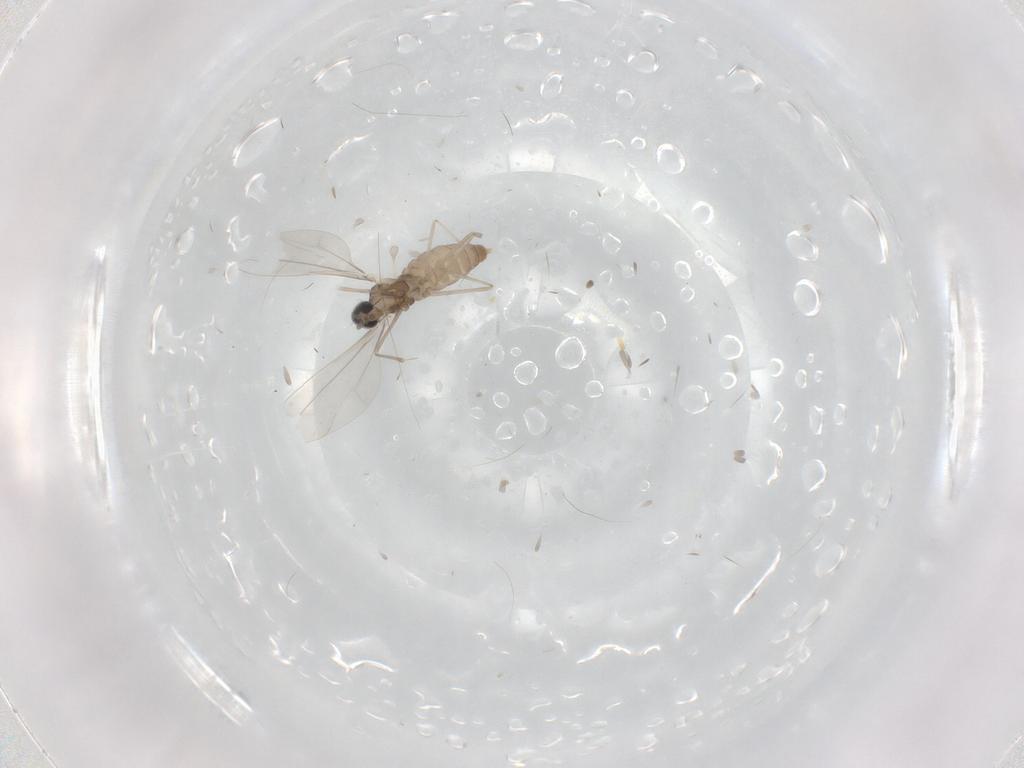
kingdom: Animalia
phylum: Arthropoda
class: Insecta
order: Diptera
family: Cecidomyiidae
